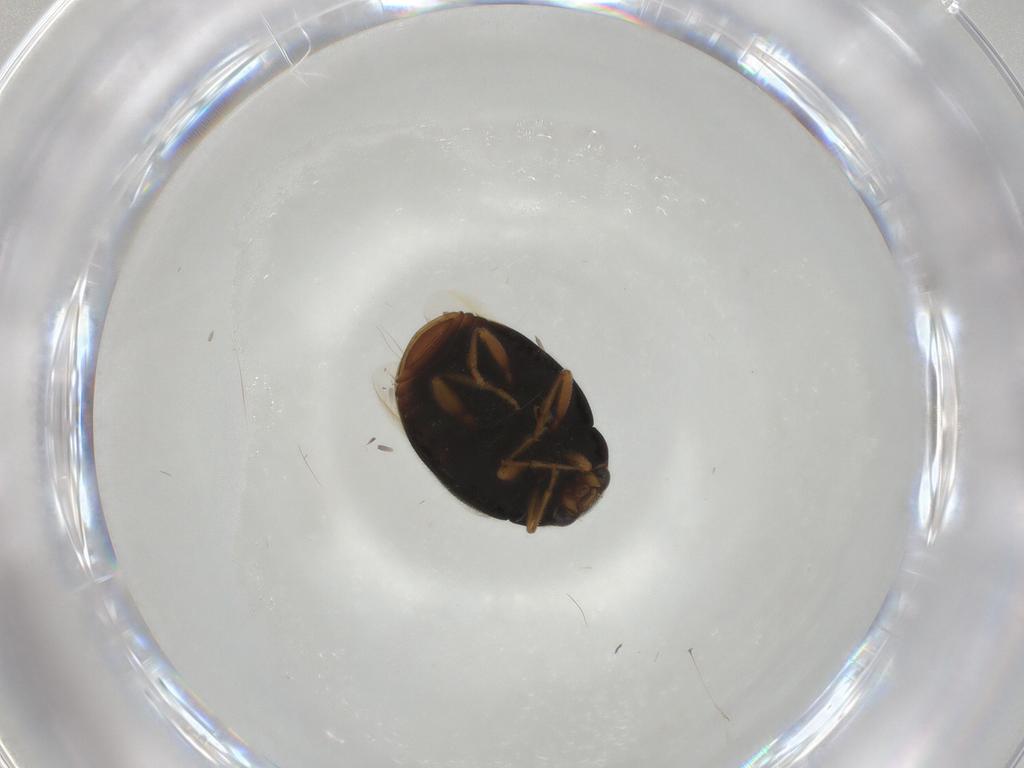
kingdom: Animalia
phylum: Arthropoda
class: Insecta
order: Coleoptera
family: Coccinellidae
